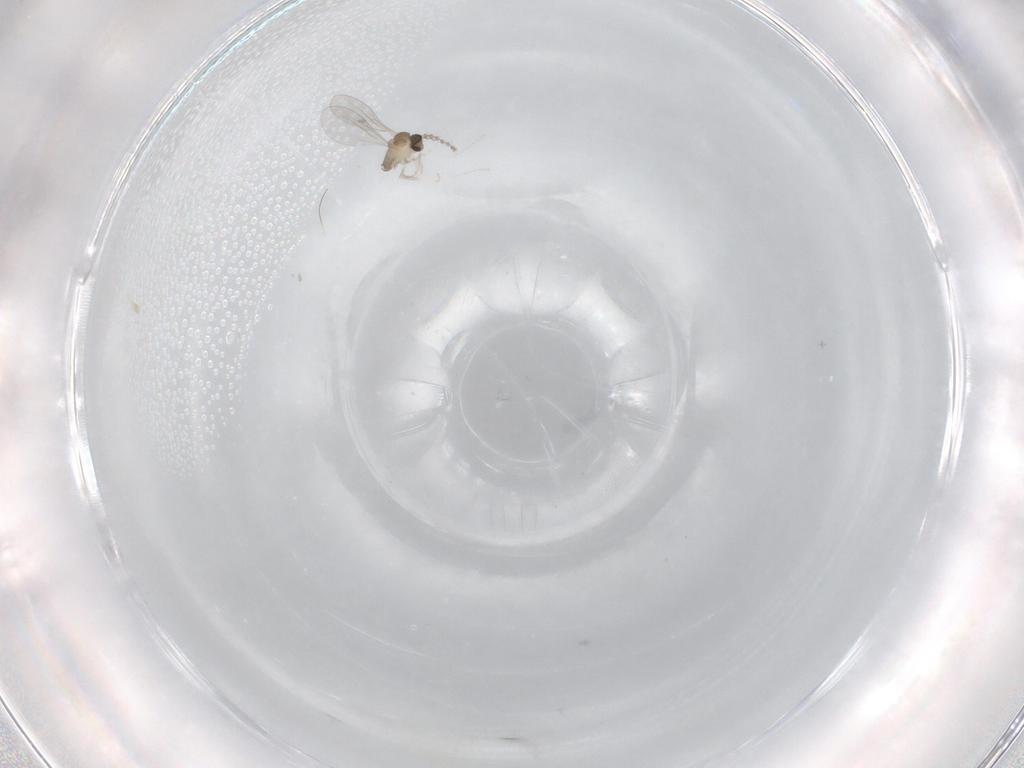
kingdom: Animalia
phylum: Arthropoda
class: Insecta
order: Diptera
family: Cecidomyiidae
